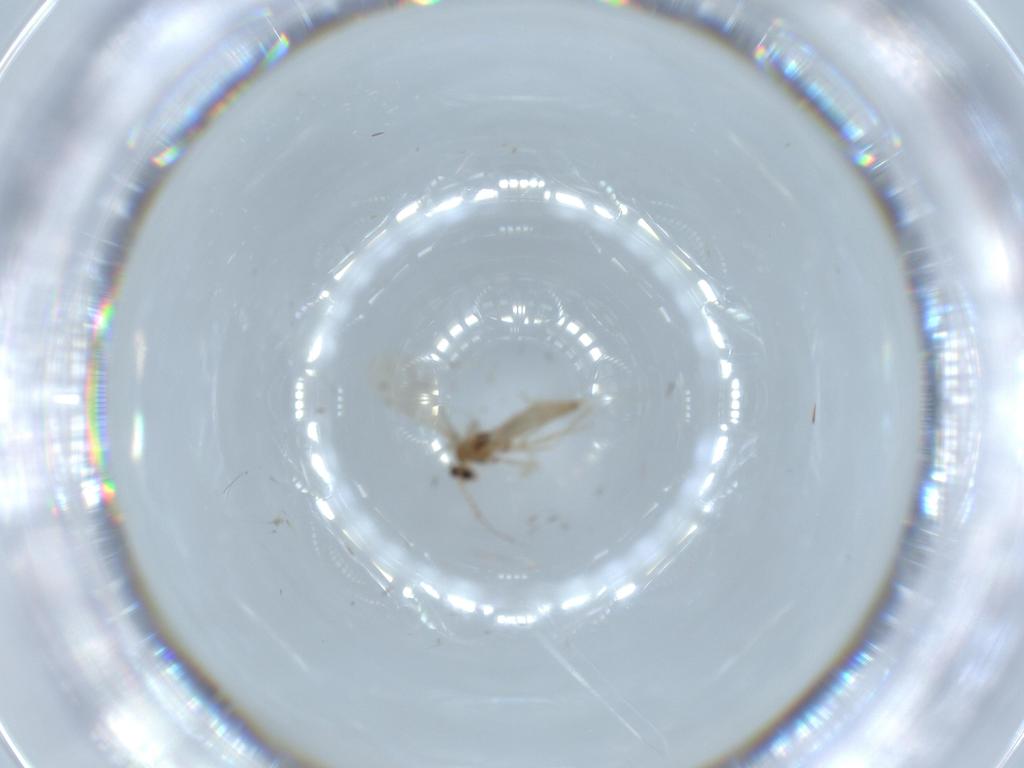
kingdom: Animalia
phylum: Arthropoda
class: Insecta
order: Diptera
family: Cecidomyiidae
